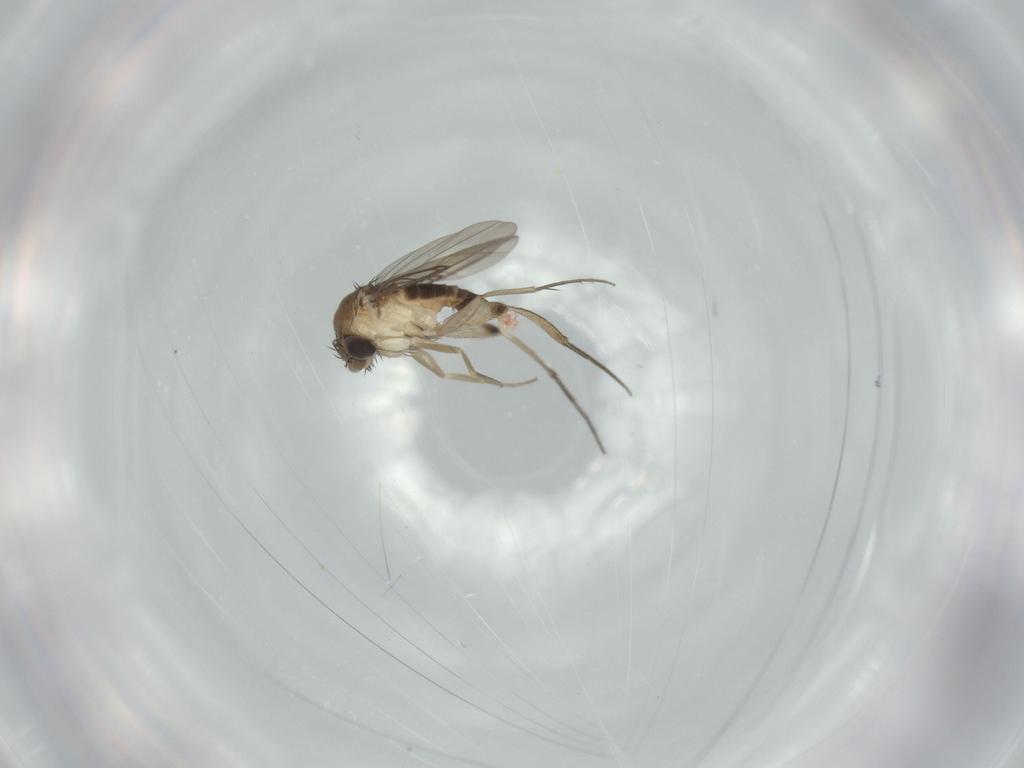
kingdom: Animalia
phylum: Arthropoda
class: Insecta
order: Diptera
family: Phoridae
